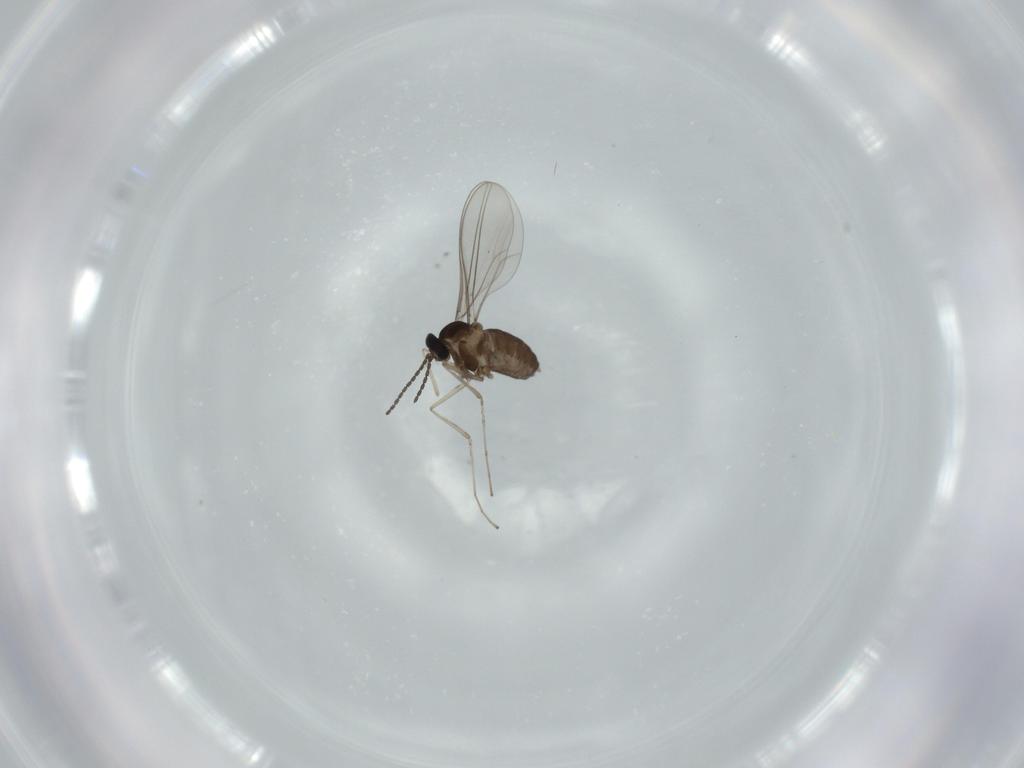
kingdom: Animalia
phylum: Arthropoda
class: Insecta
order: Diptera
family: Cecidomyiidae
